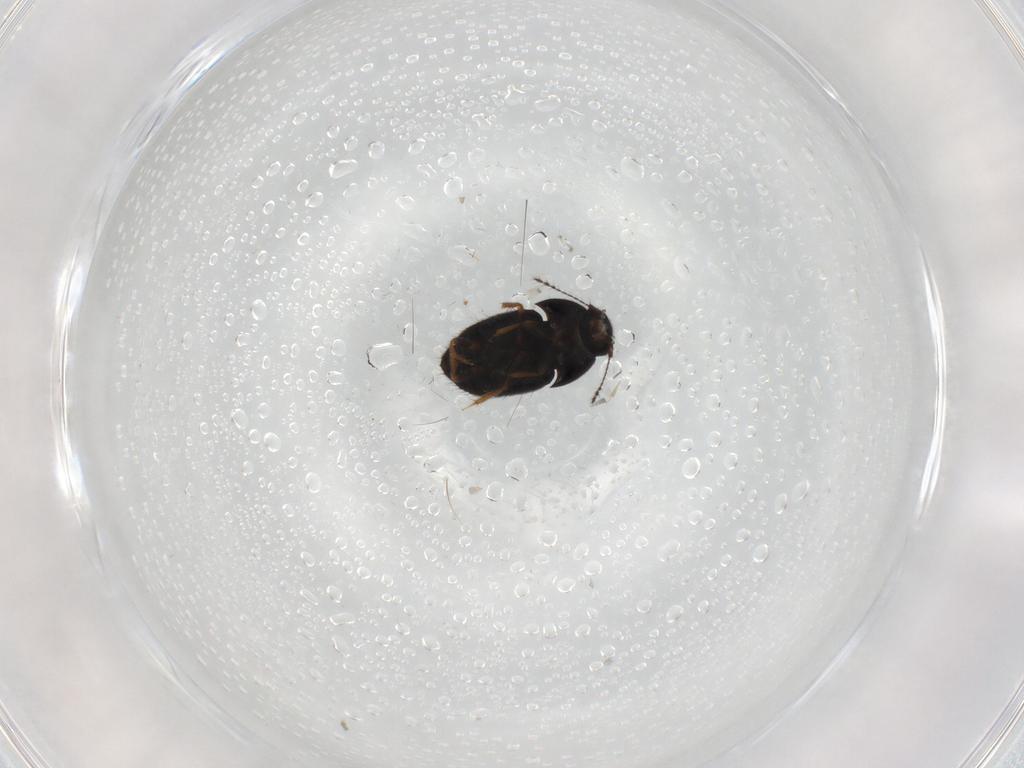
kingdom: Animalia
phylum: Arthropoda
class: Insecta
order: Coleoptera
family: Ptiliidae
